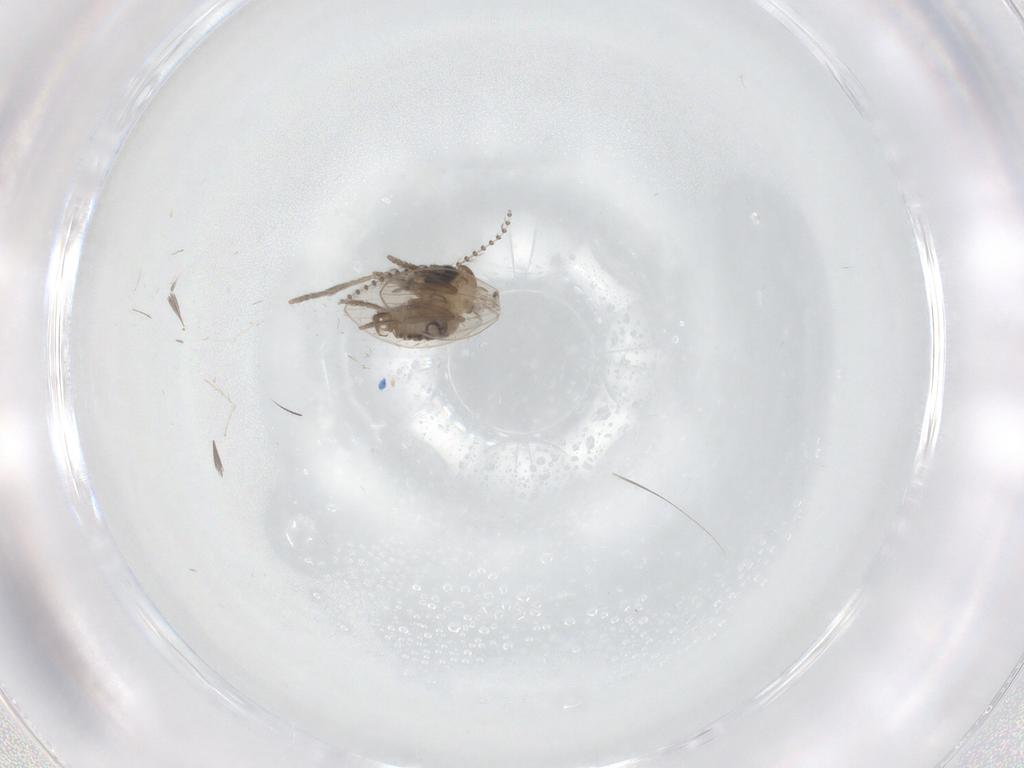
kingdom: Animalia
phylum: Arthropoda
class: Insecta
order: Diptera
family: Psychodidae
